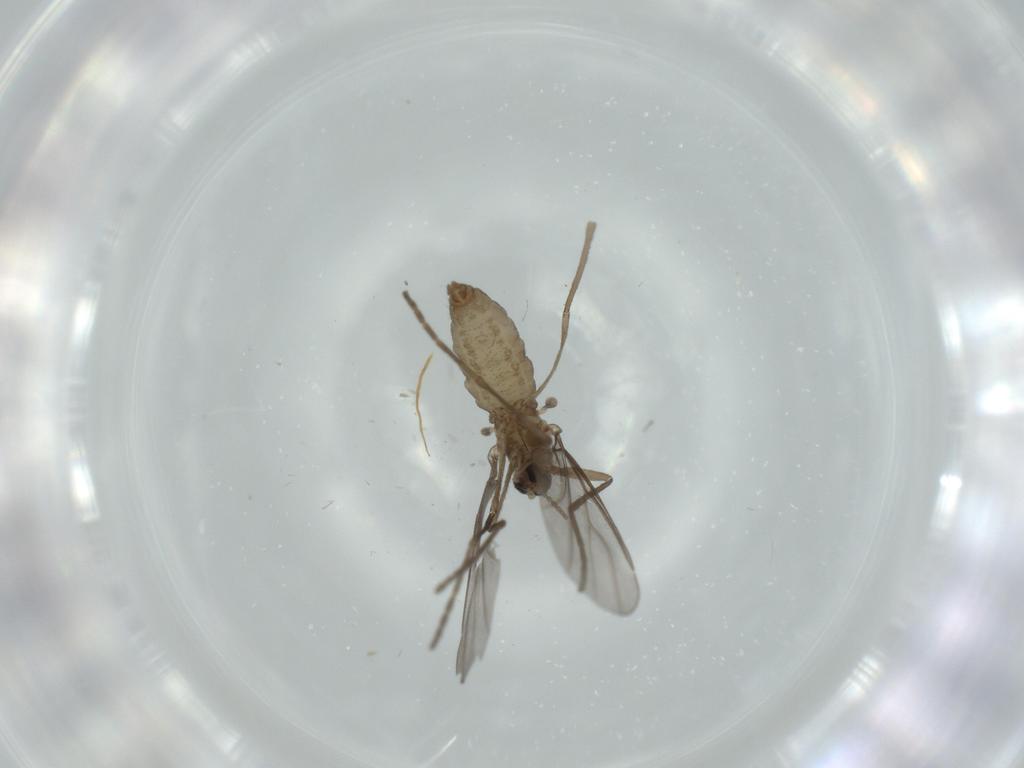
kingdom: Animalia
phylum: Arthropoda
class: Insecta
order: Diptera
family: Cecidomyiidae
